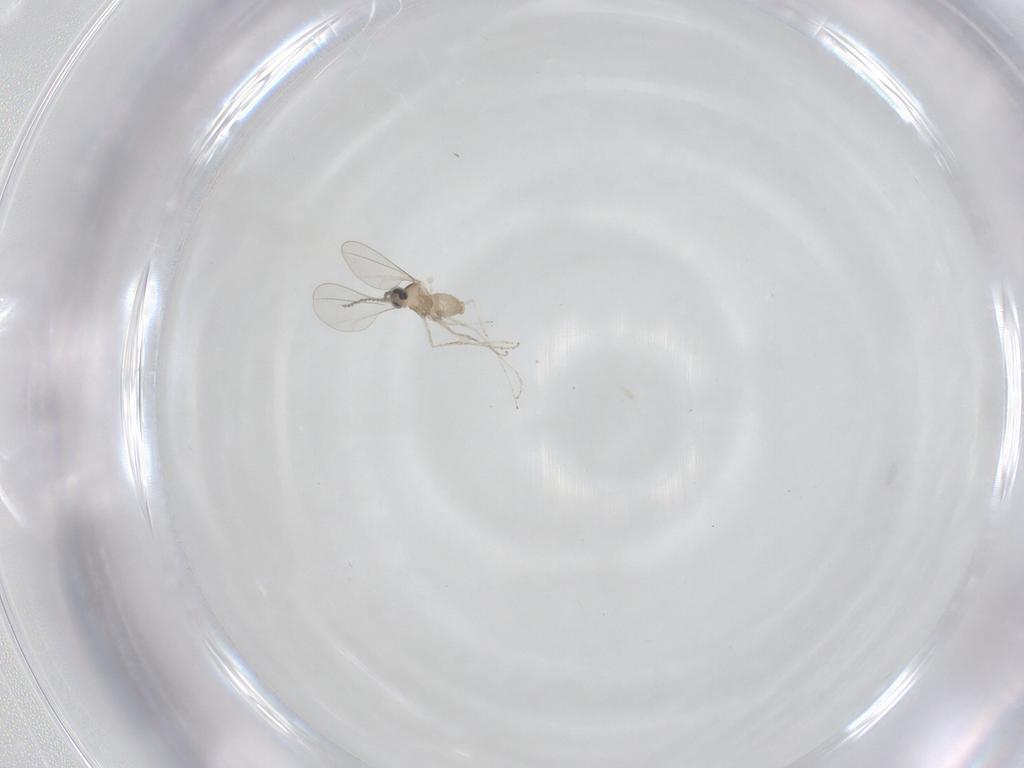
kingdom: Animalia
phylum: Arthropoda
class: Insecta
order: Diptera
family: Cecidomyiidae
